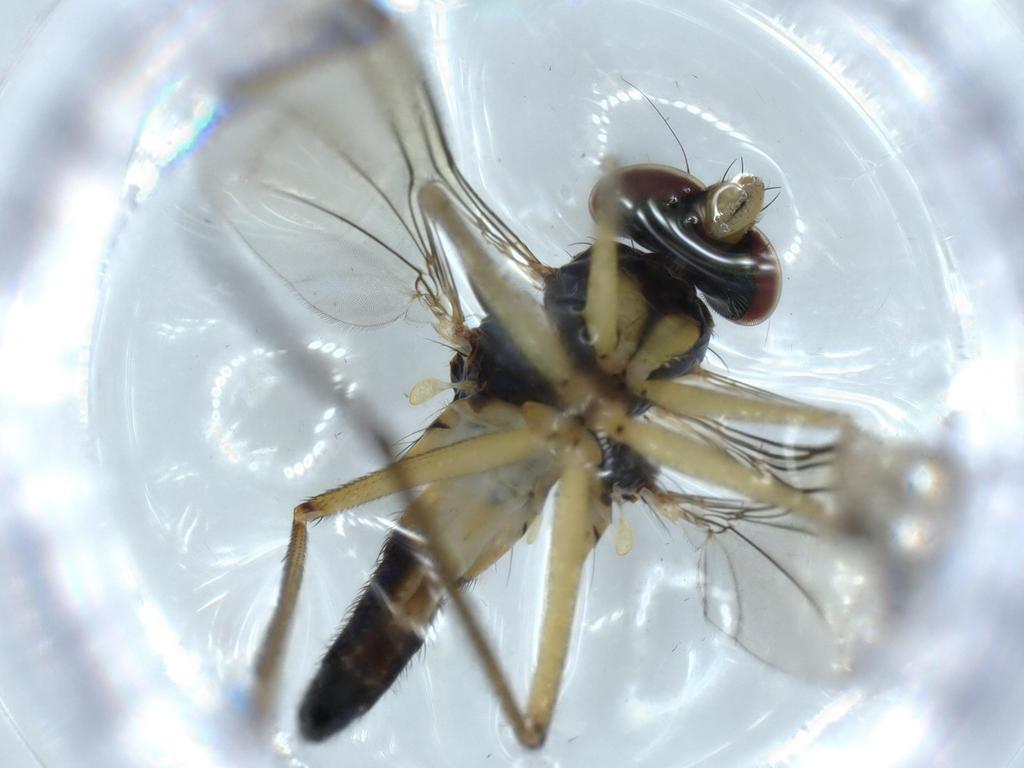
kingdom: Animalia
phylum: Arthropoda
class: Insecta
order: Diptera
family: Dolichopodidae
